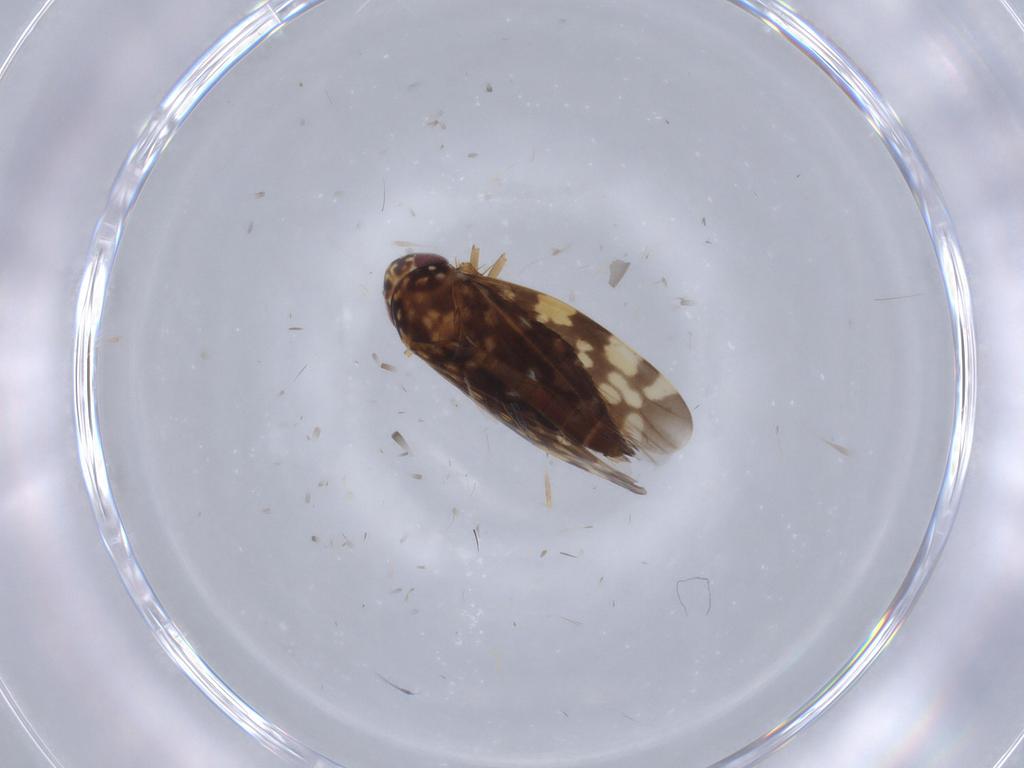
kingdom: Animalia
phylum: Arthropoda
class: Insecta
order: Hemiptera
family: Cicadellidae
